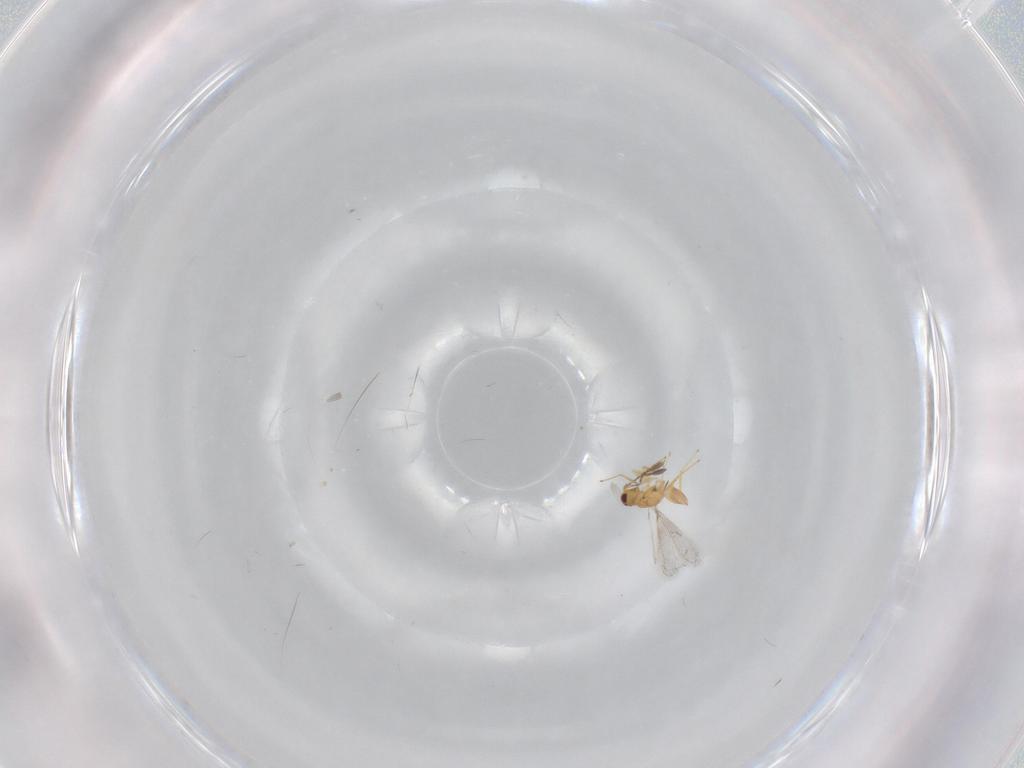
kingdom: Animalia
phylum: Arthropoda
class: Insecta
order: Hymenoptera
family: Mymaridae
